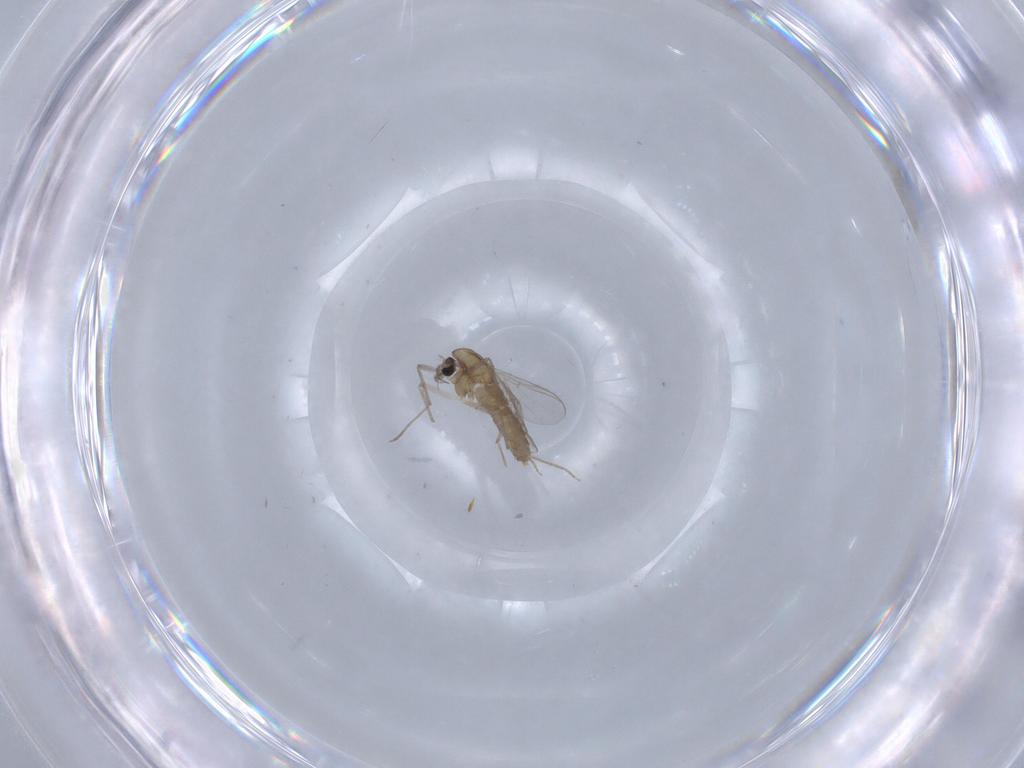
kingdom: Animalia
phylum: Arthropoda
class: Insecta
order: Diptera
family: Chironomidae
